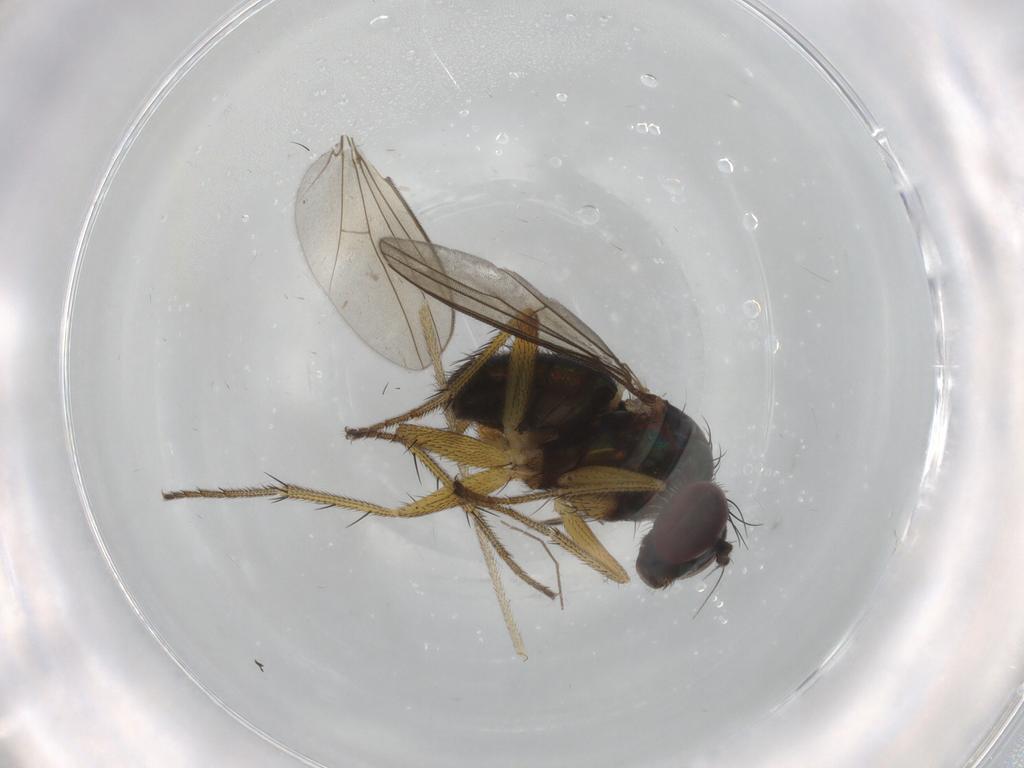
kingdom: Animalia
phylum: Arthropoda
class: Insecta
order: Diptera
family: Dolichopodidae
